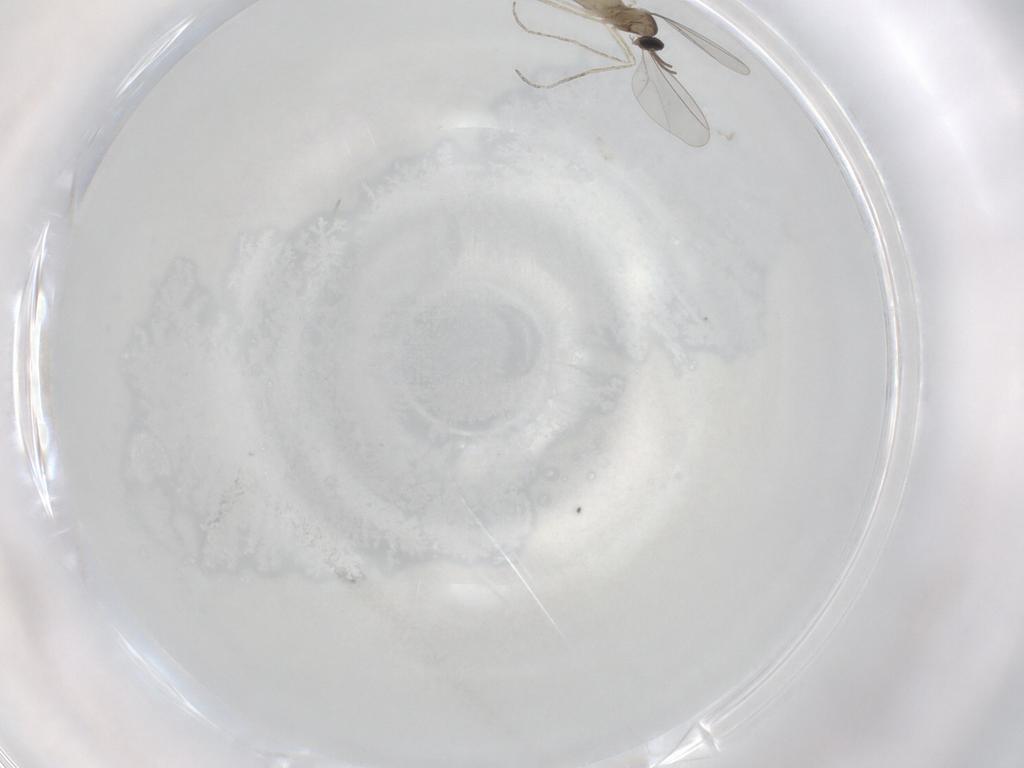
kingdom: Animalia
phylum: Arthropoda
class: Insecta
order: Diptera
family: Cecidomyiidae
